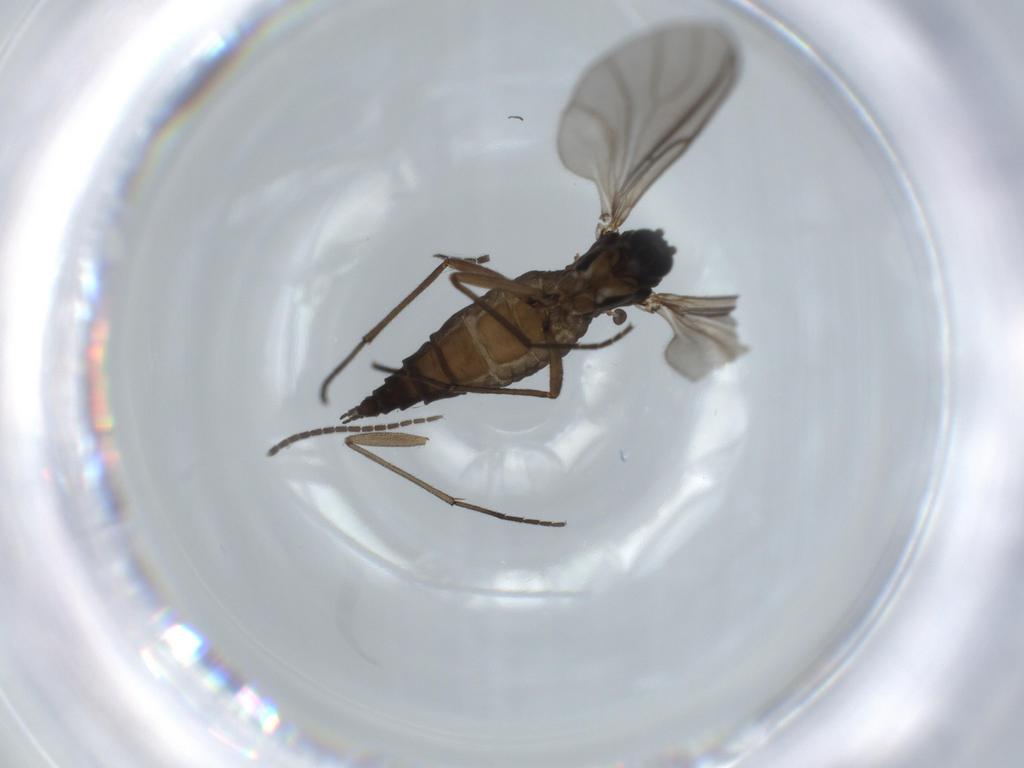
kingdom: Animalia
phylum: Arthropoda
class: Insecta
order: Diptera
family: Sciaridae
